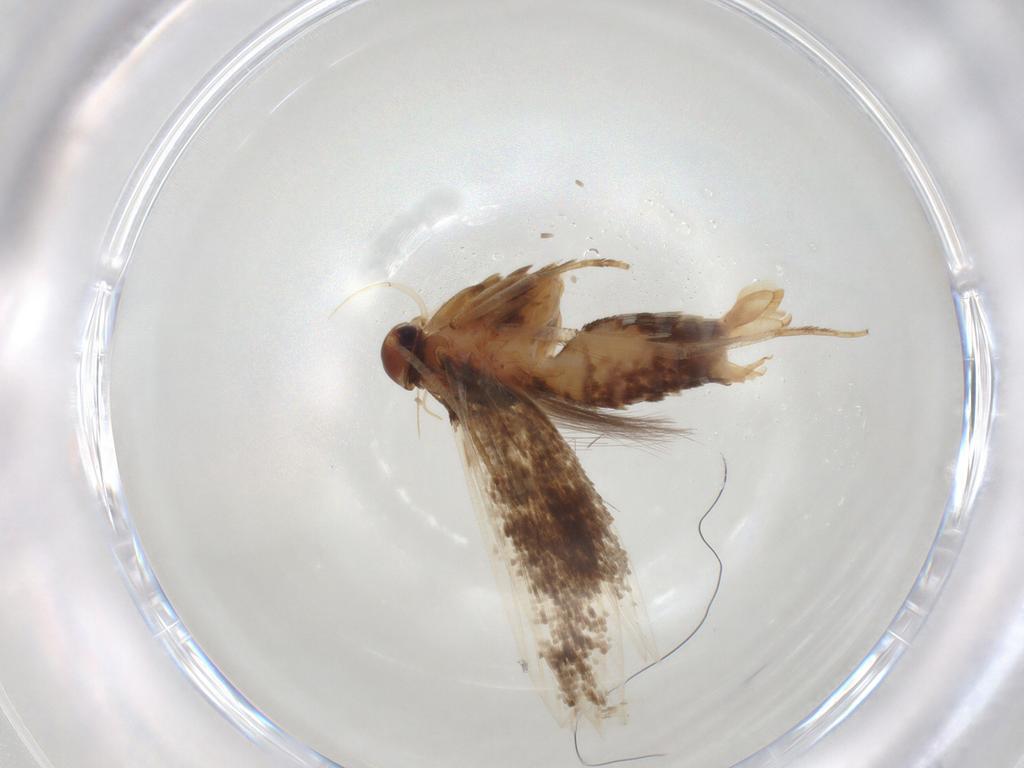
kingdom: Animalia
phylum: Arthropoda
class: Insecta
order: Lepidoptera
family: Cosmopterigidae
